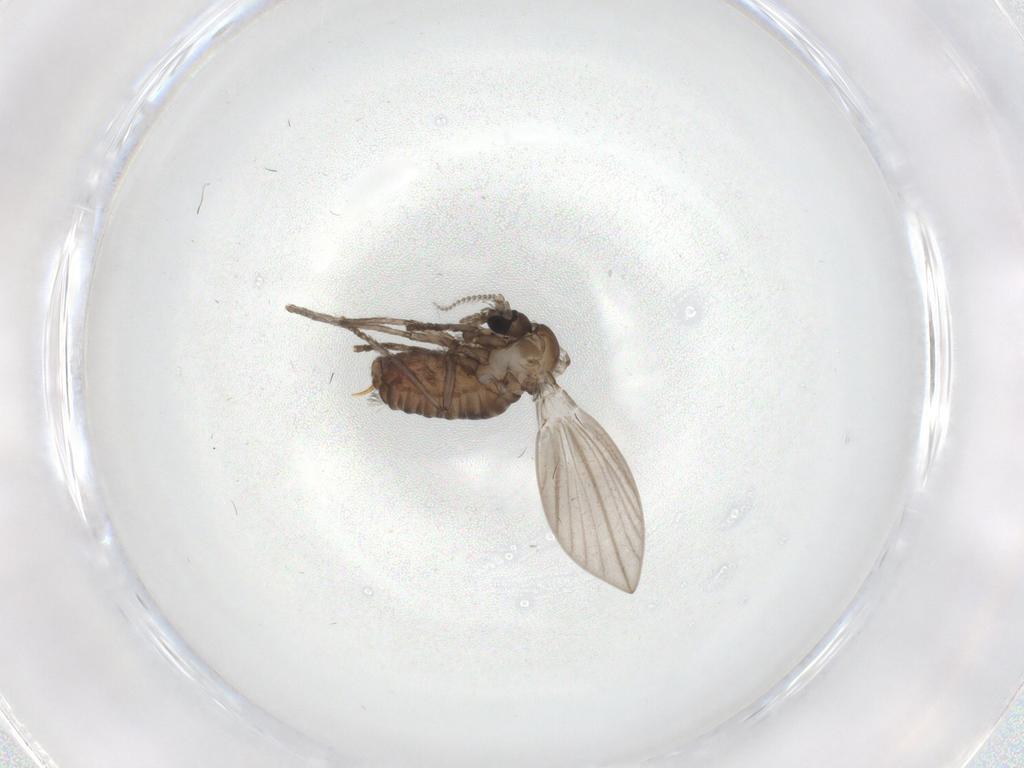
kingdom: Animalia
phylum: Arthropoda
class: Insecta
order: Diptera
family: Psychodidae
